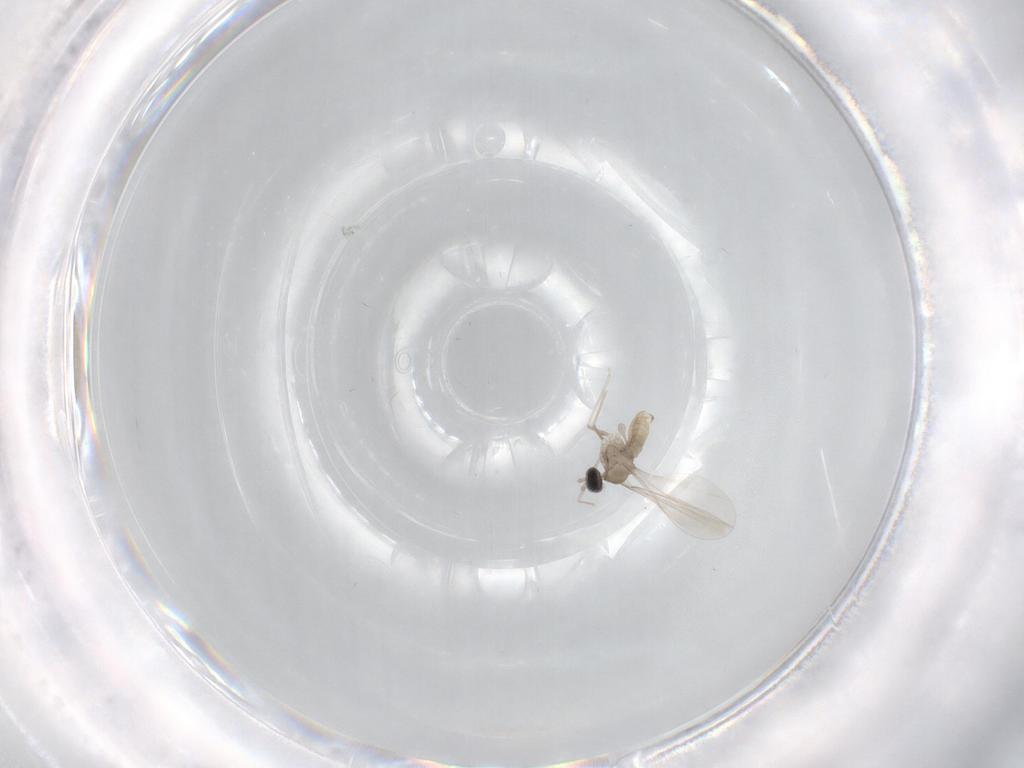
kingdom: Animalia
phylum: Arthropoda
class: Insecta
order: Diptera
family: Cecidomyiidae
